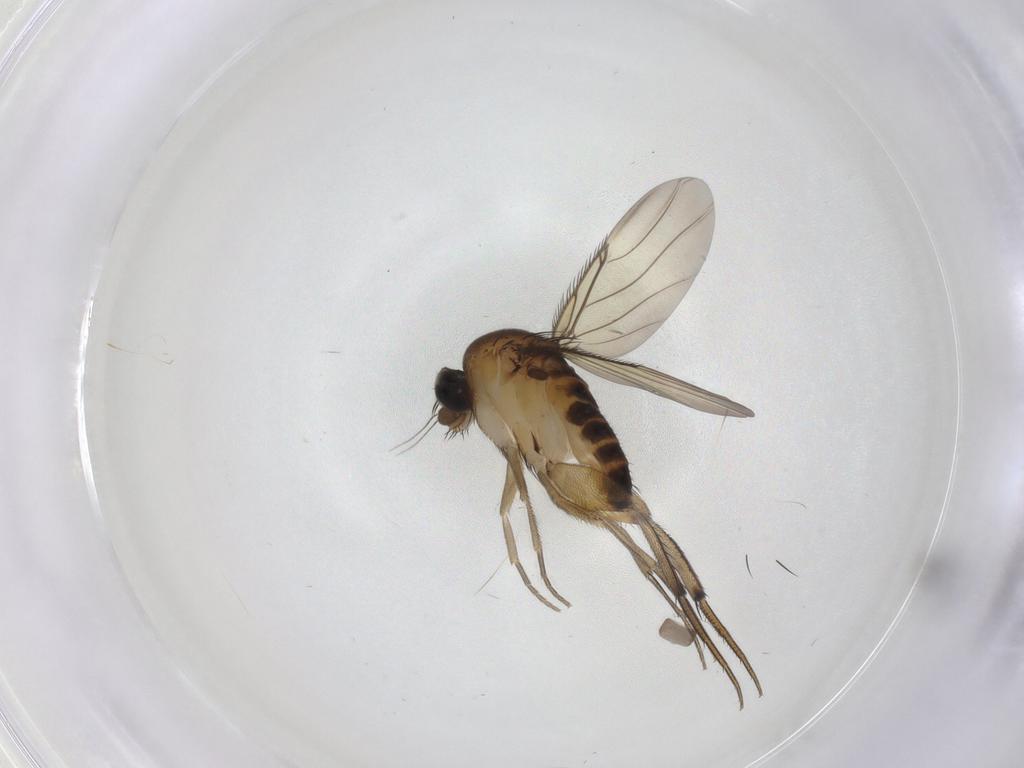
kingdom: Animalia
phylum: Arthropoda
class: Insecta
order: Diptera
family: Phoridae
